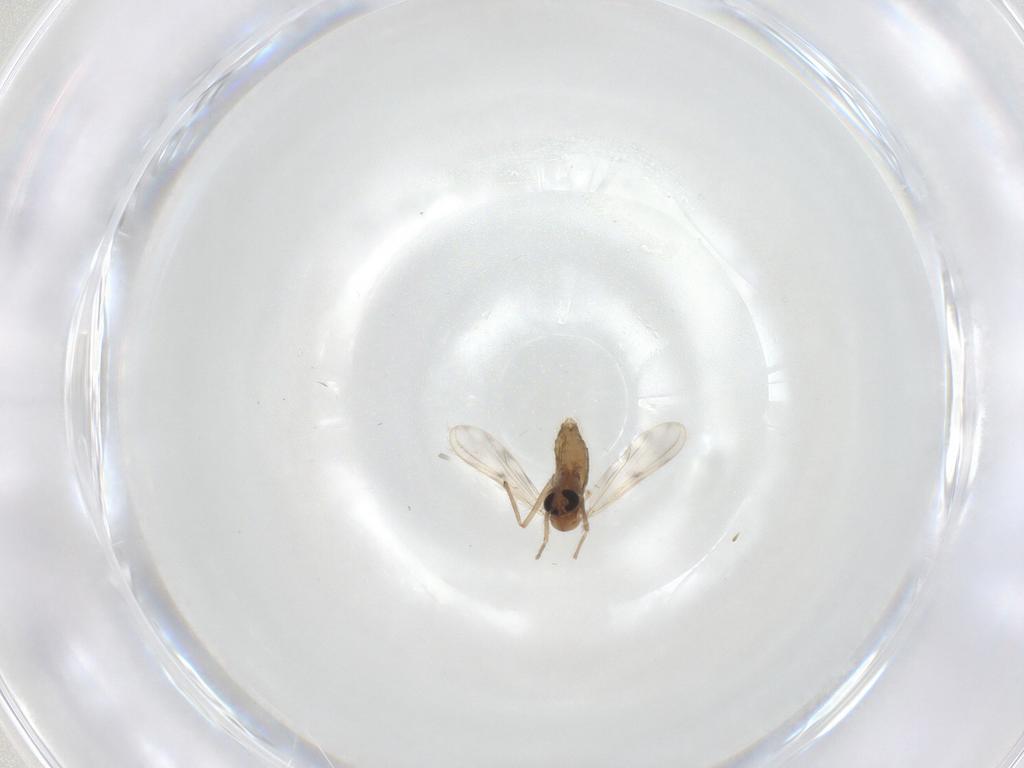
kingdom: Animalia
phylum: Arthropoda
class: Insecta
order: Diptera
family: Chironomidae
